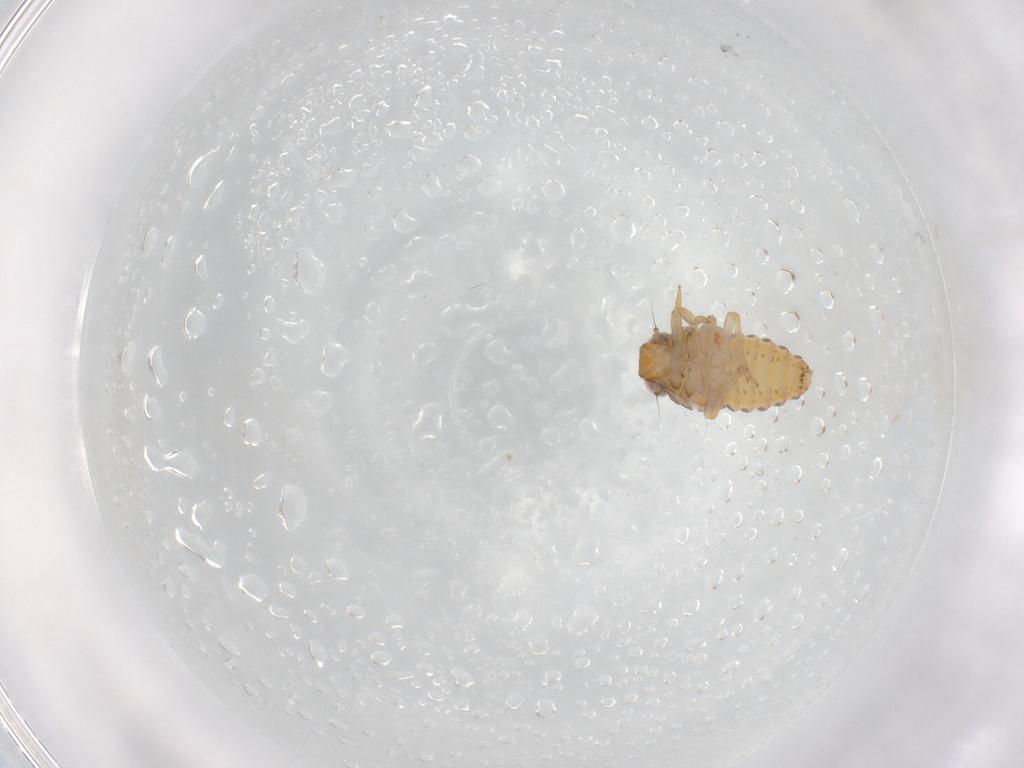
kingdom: Animalia
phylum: Arthropoda
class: Insecta
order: Hemiptera
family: Issidae
